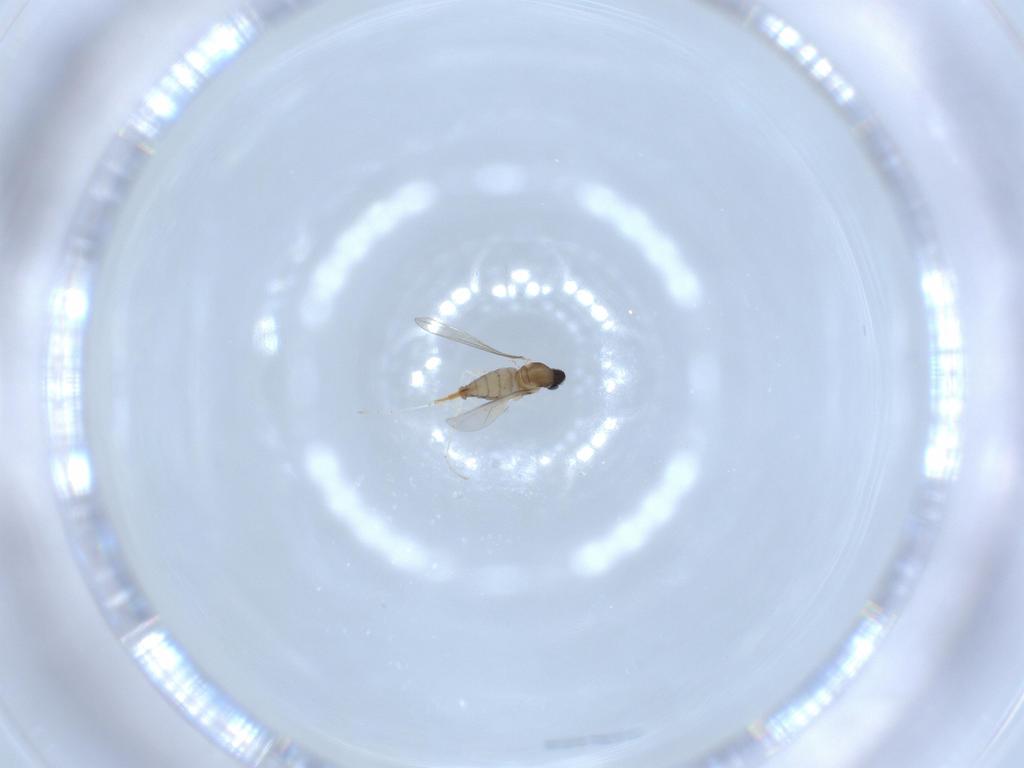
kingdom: Animalia
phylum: Arthropoda
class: Insecta
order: Diptera
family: Cecidomyiidae
